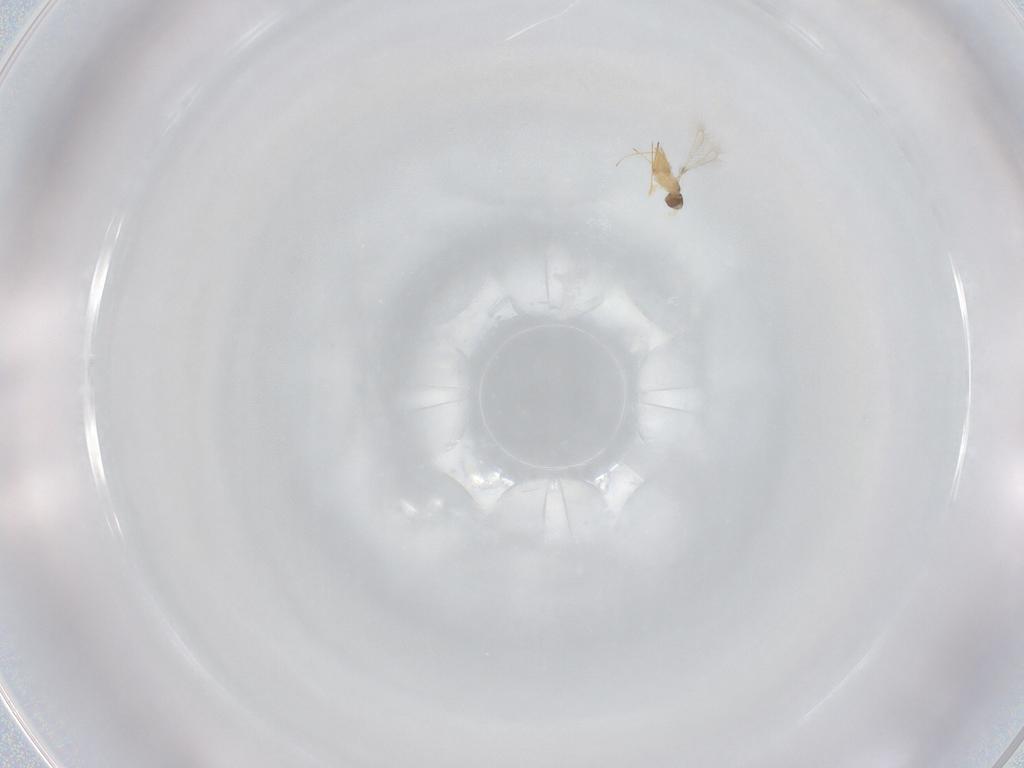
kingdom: Animalia
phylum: Arthropoda
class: Insecta
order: Hymenoptera
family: Mymaridae
